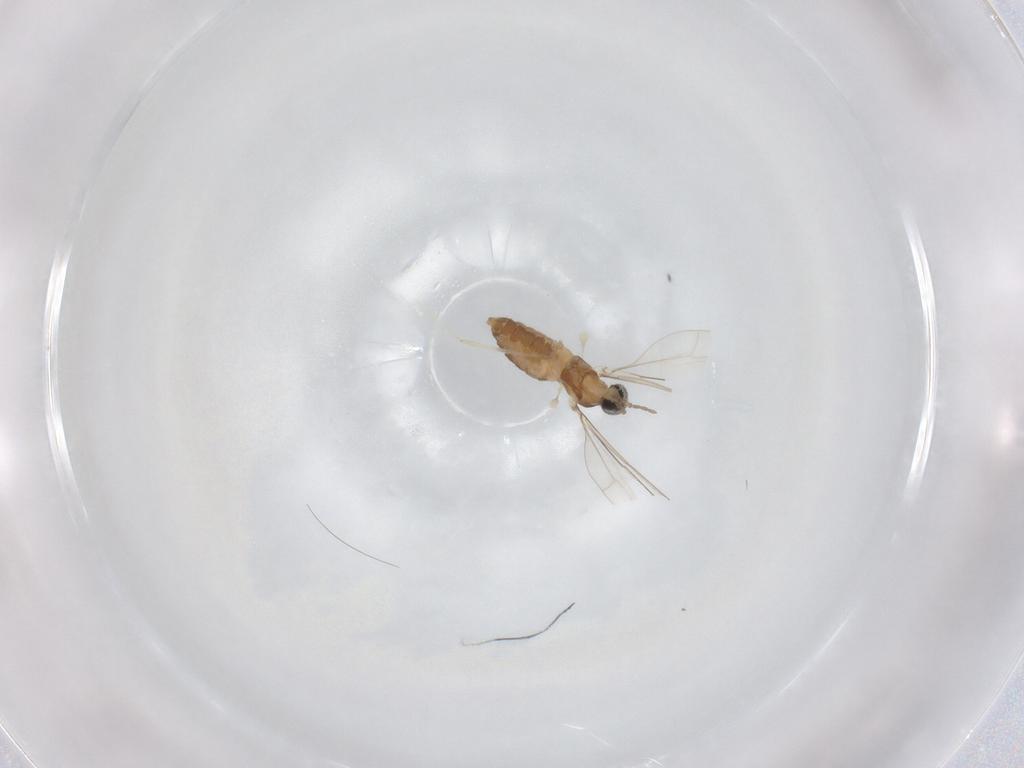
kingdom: Animalia
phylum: Arthropoda
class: Insecta
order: Diptera
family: Cecidomyiidae
